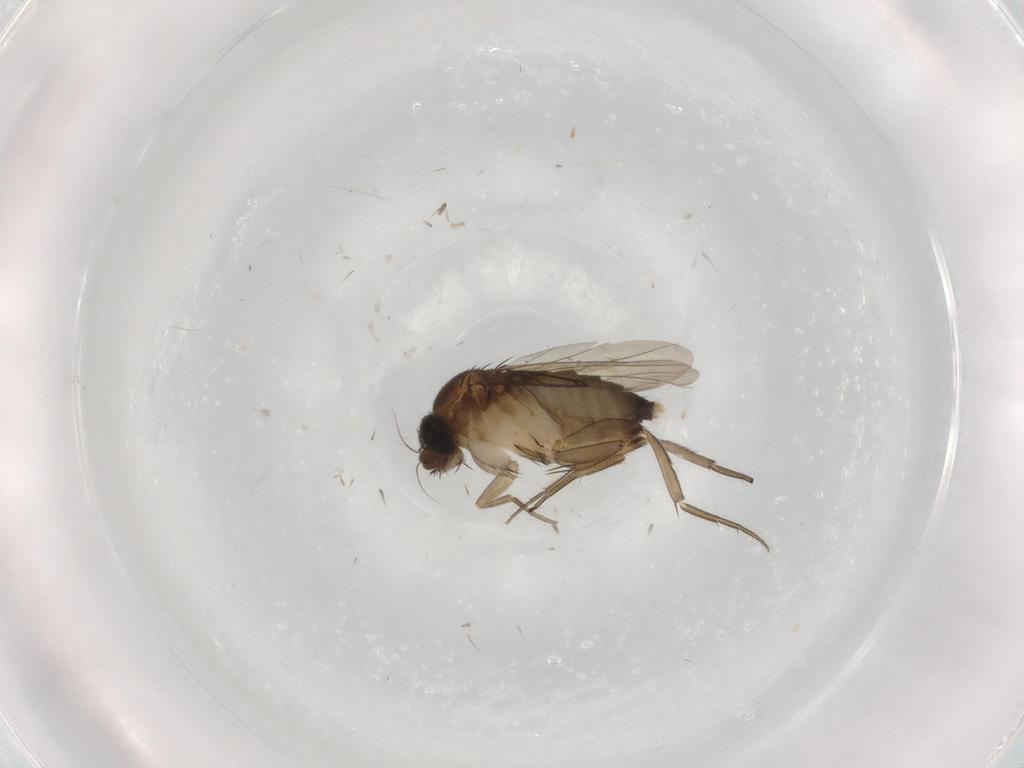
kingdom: Animalia
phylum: Arthropoda
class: Insecta
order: Diptera
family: Phoridae
